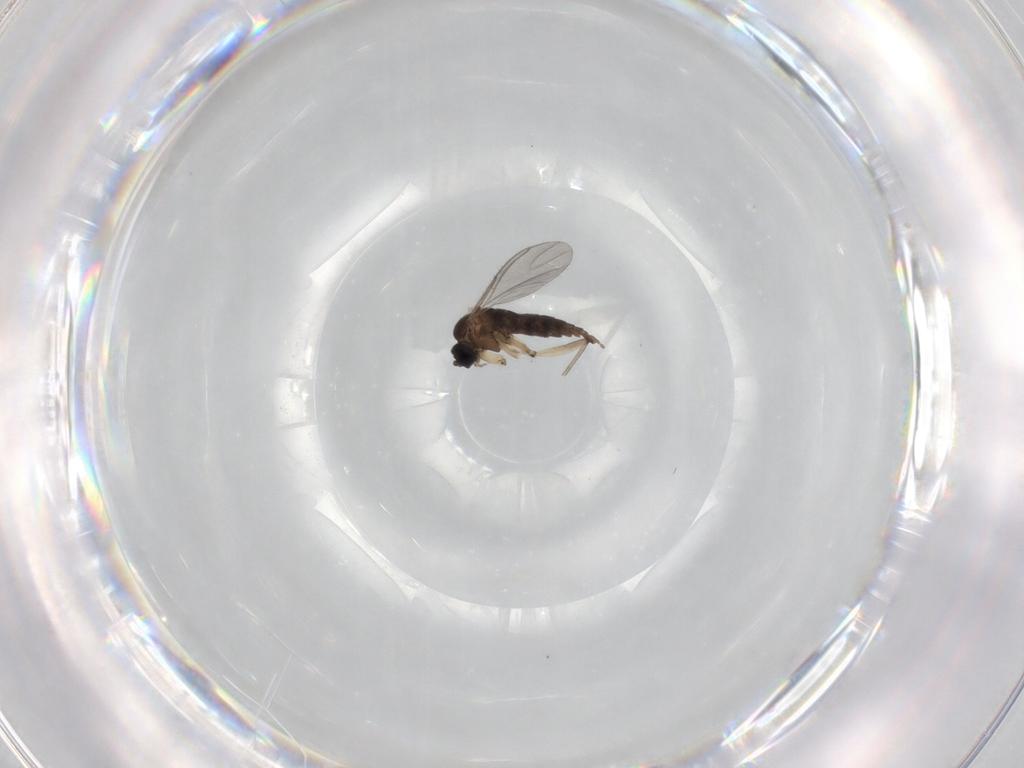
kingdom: Animalia
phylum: Arthropoda
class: Insecta
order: Diptera
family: Sciaridae
